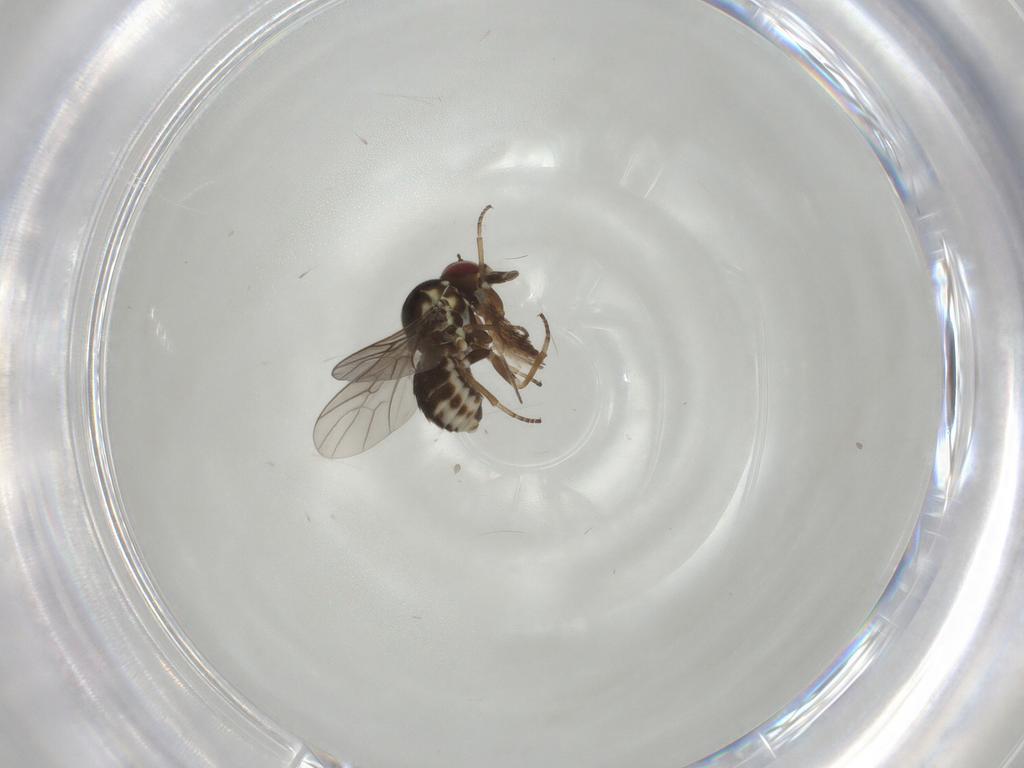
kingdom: Animalia
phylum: Arthropoda
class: Insecta
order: Diptera
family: Bombyliidae
